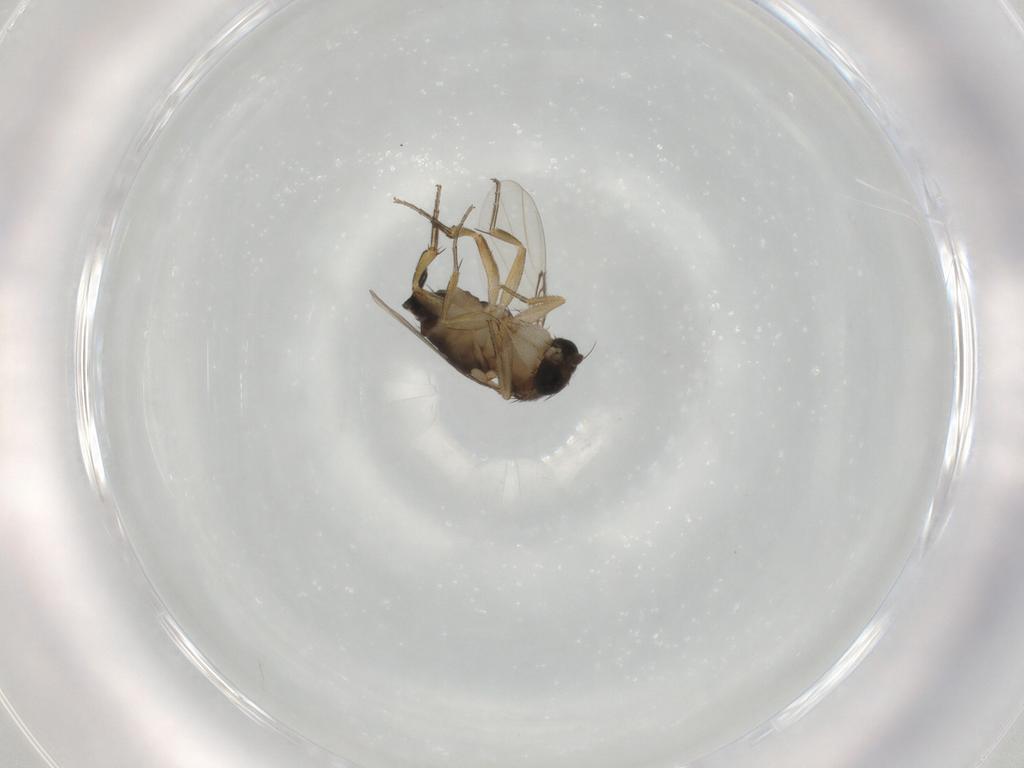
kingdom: Animalia
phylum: Arthropoda
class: Insecta
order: Diptera
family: Phoridae
